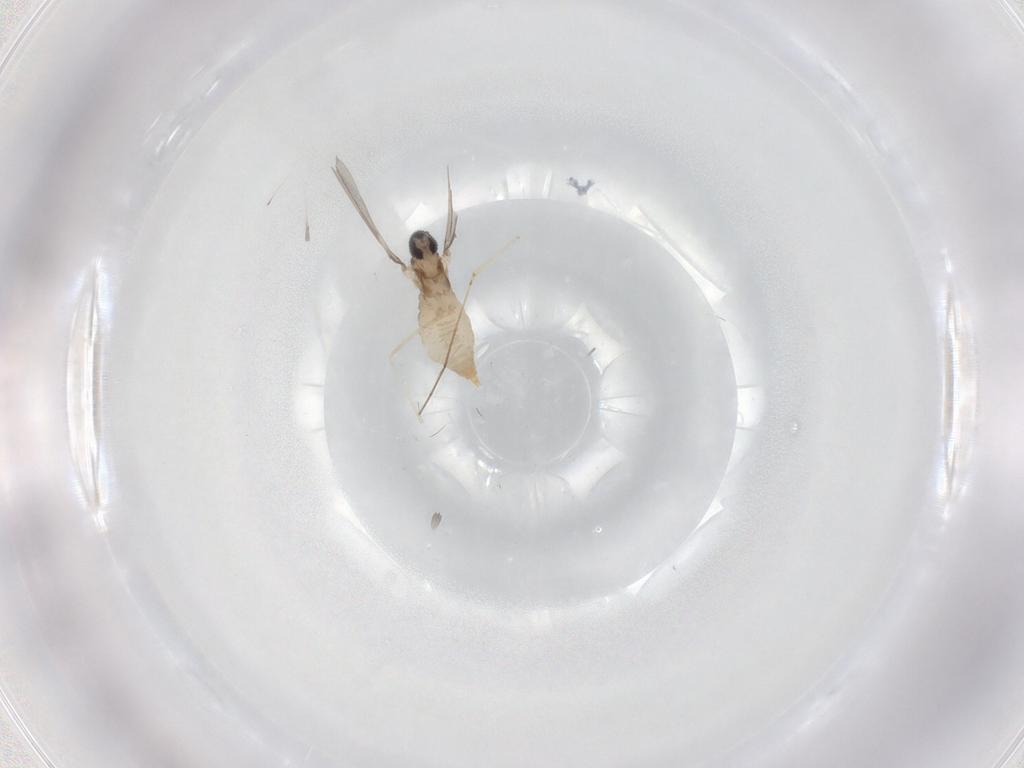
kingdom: Animalia
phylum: Arthropoda
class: Insecta
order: Diptera
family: Cecidomyiidae
